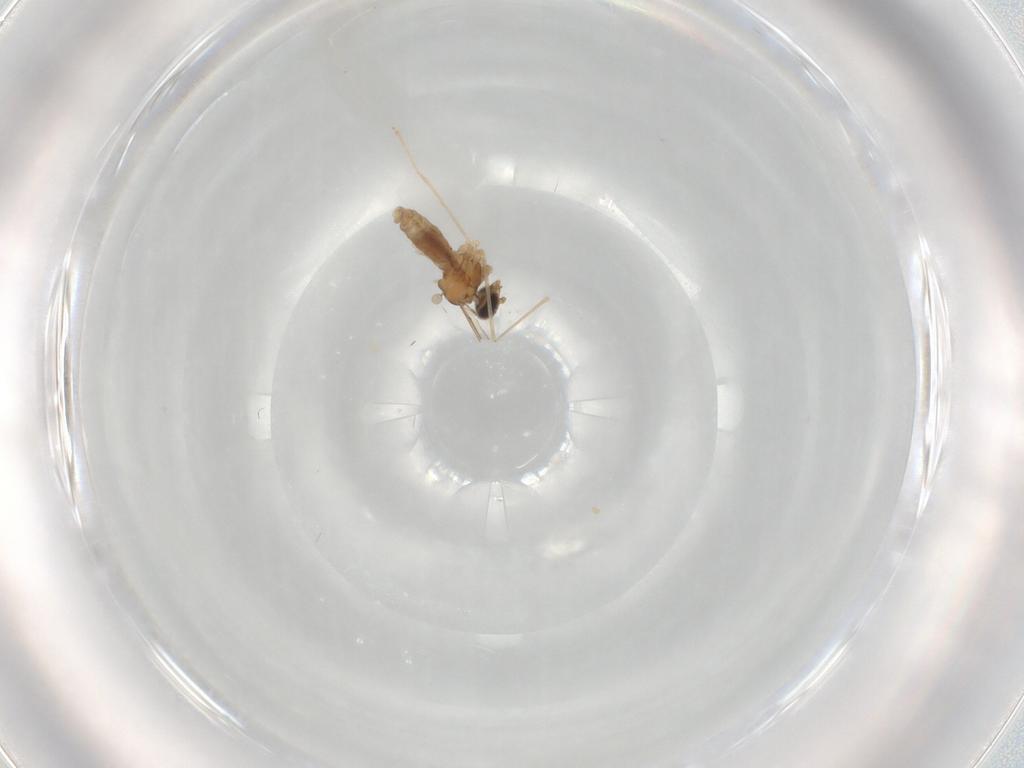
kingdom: Animalia
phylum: Arthropoda
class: Insecta
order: Diptera
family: Cecidomyiidae
